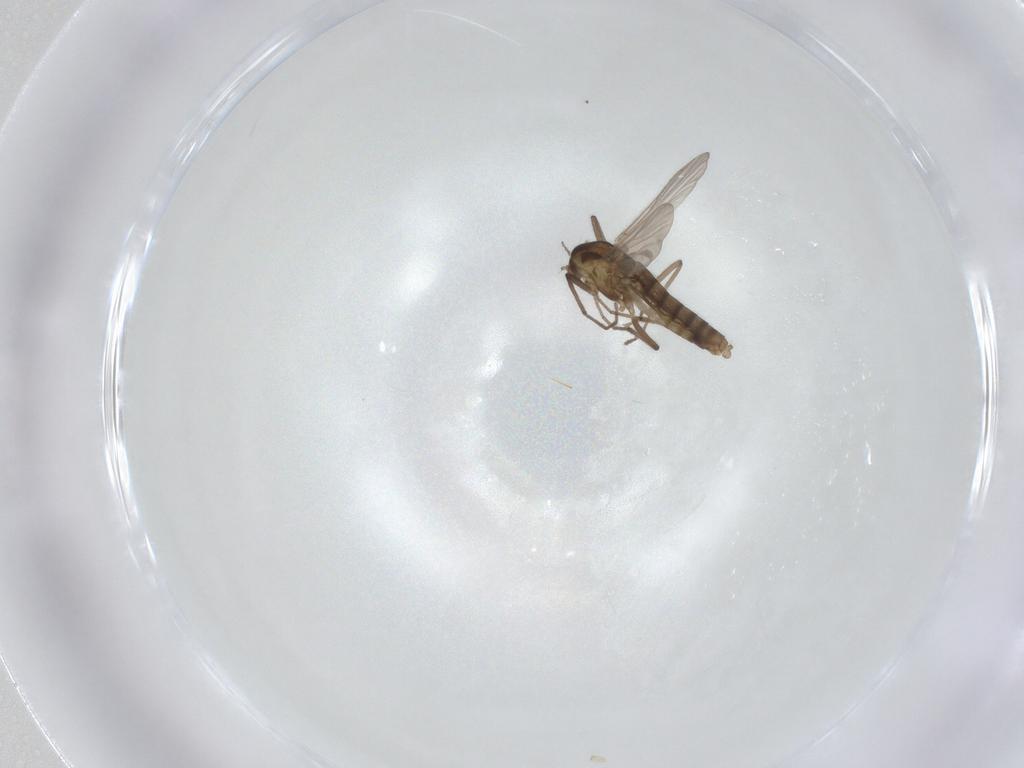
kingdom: Animalia
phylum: Arthropoda
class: Insecta
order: Diptera
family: Chironomidae
